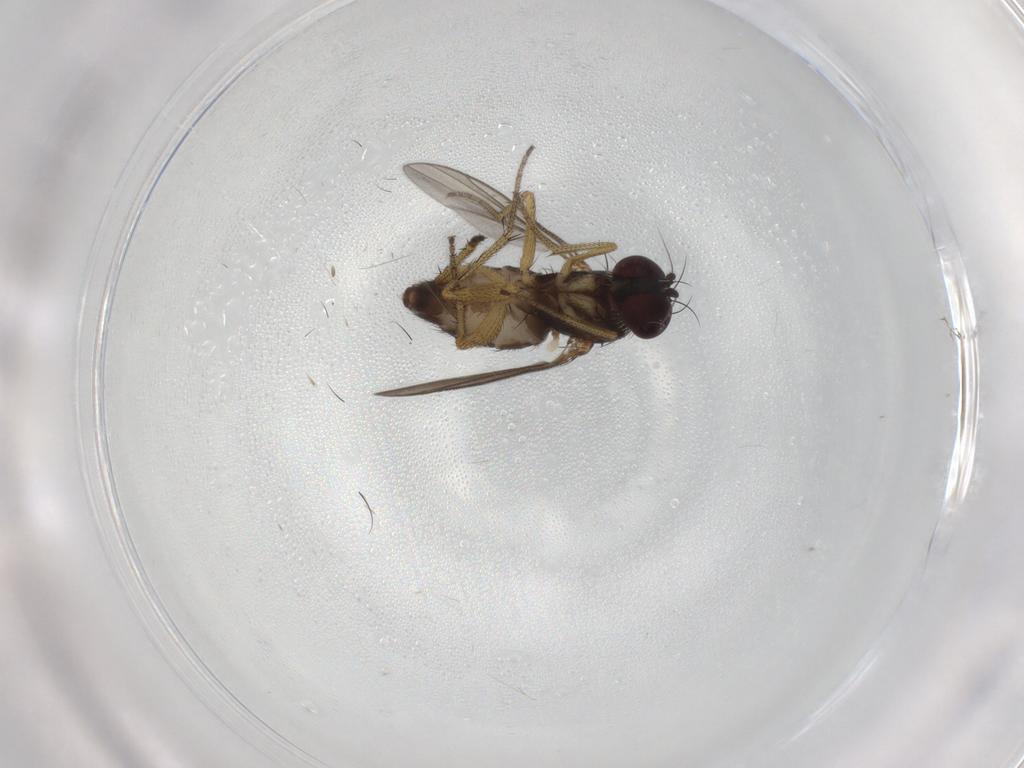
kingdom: Animalia
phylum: Arthropoda
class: Insecta
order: Diptera
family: Dolichopodidae
